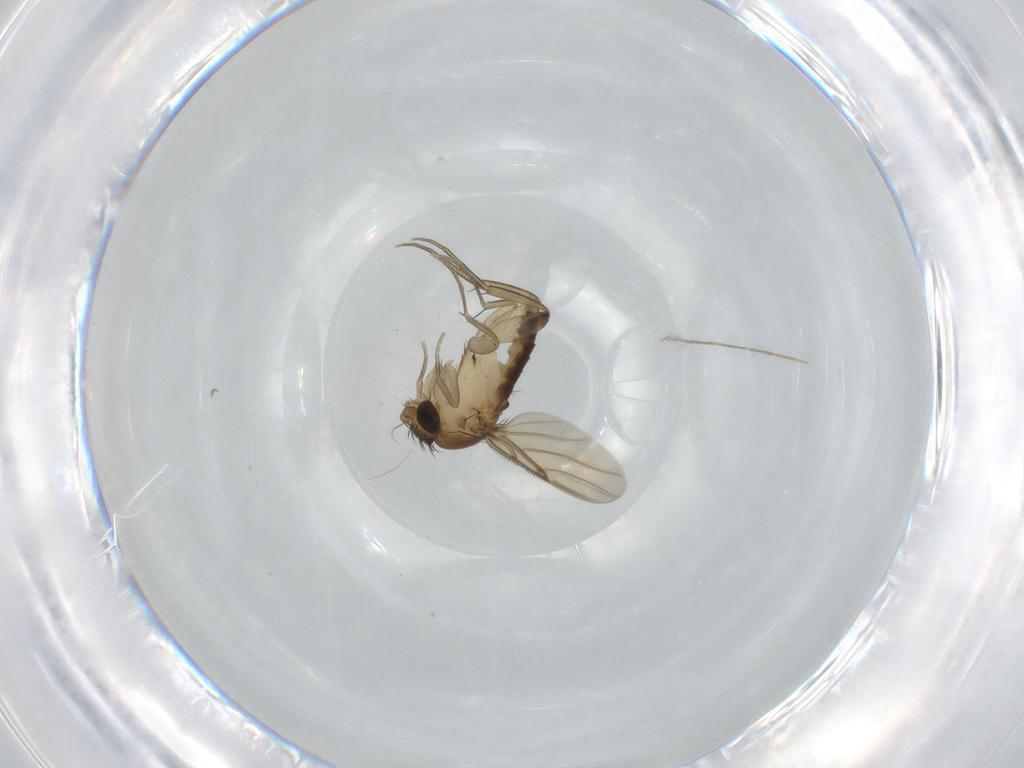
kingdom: Animalia
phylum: Arthropoda
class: Insecta
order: Diptera
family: Chironomidae
